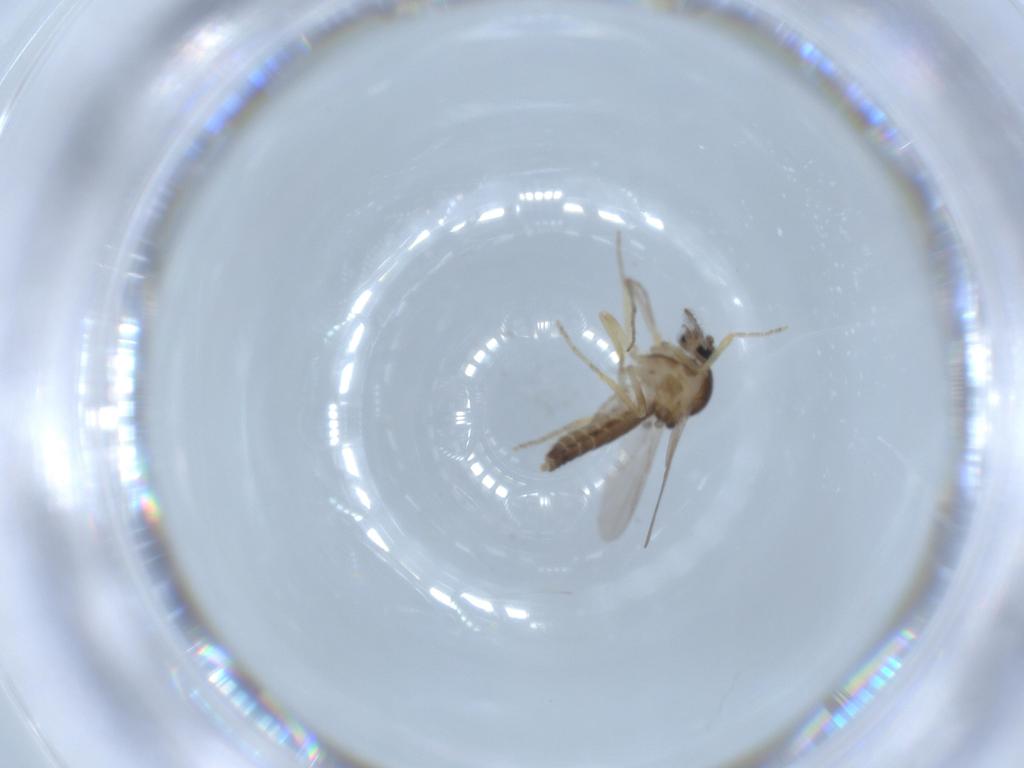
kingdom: Animalia
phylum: Arthropoda
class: Insecta
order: Diptera
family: Ceratopogonidae
